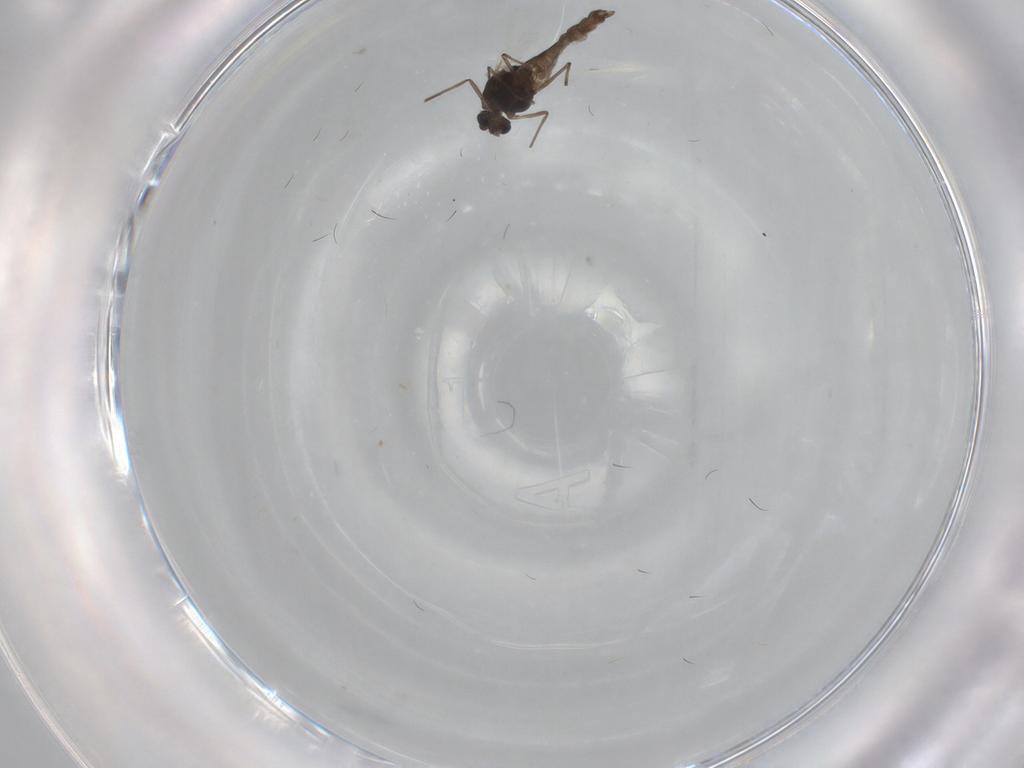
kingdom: Animalia
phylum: Arthropoda
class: Insecta
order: Diptera
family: Chironomidae
